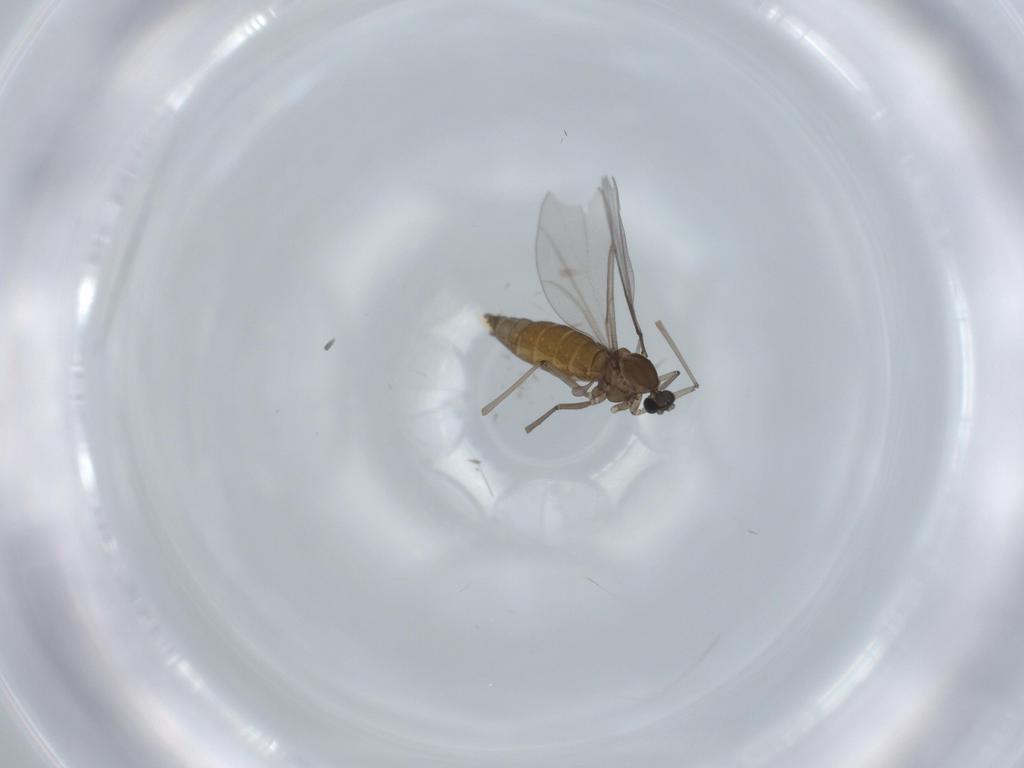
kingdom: Animalia
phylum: Arthropoda
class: Insecta
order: Diptera
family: Cecidomyiidae
